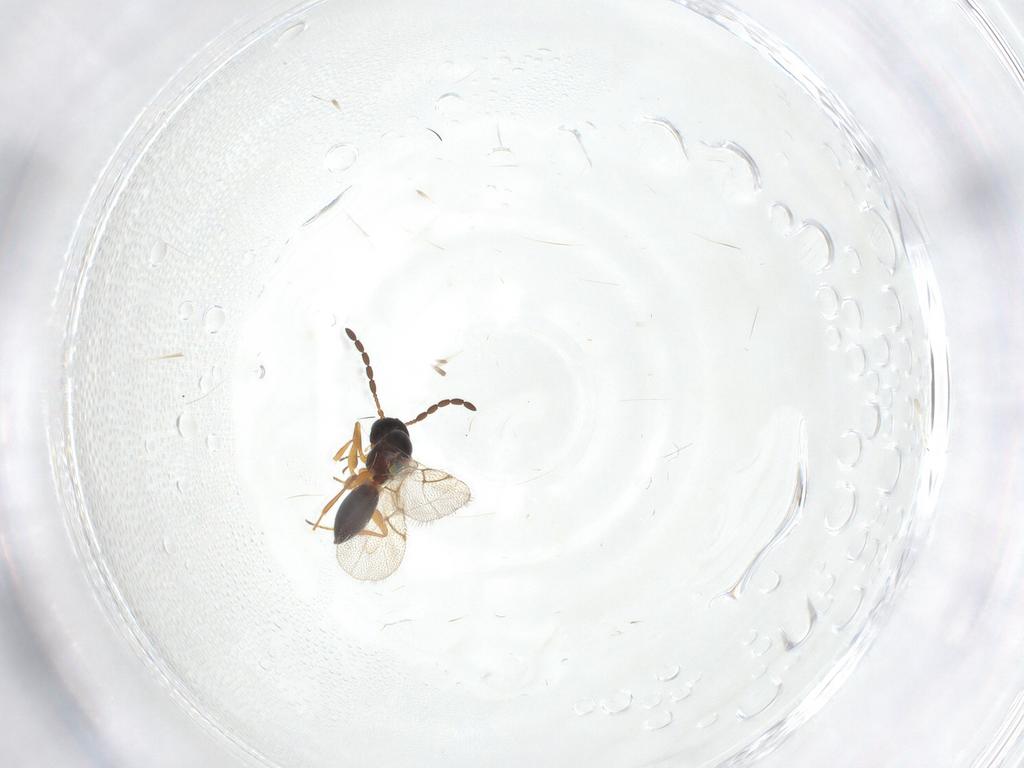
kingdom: Animalia
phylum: Arthropoda
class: Insecta
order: Hymenoptera
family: Figitidae
